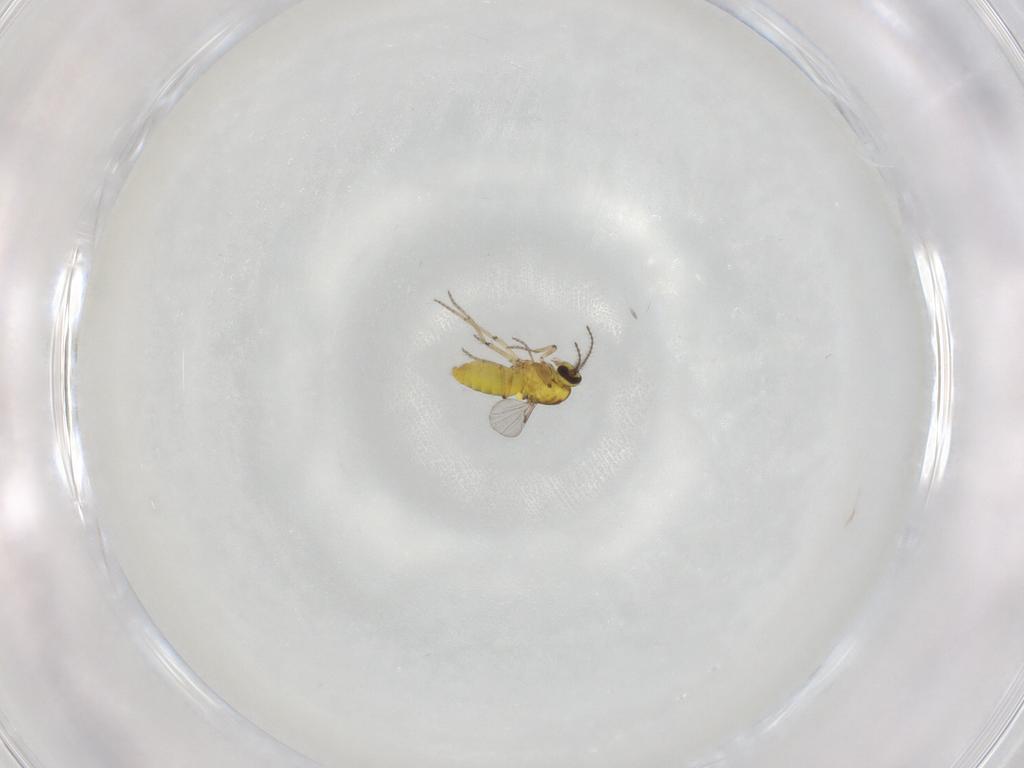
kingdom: Animalia
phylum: Arthropoda
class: Insecta
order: Diptera
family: Ceratopogonidae
